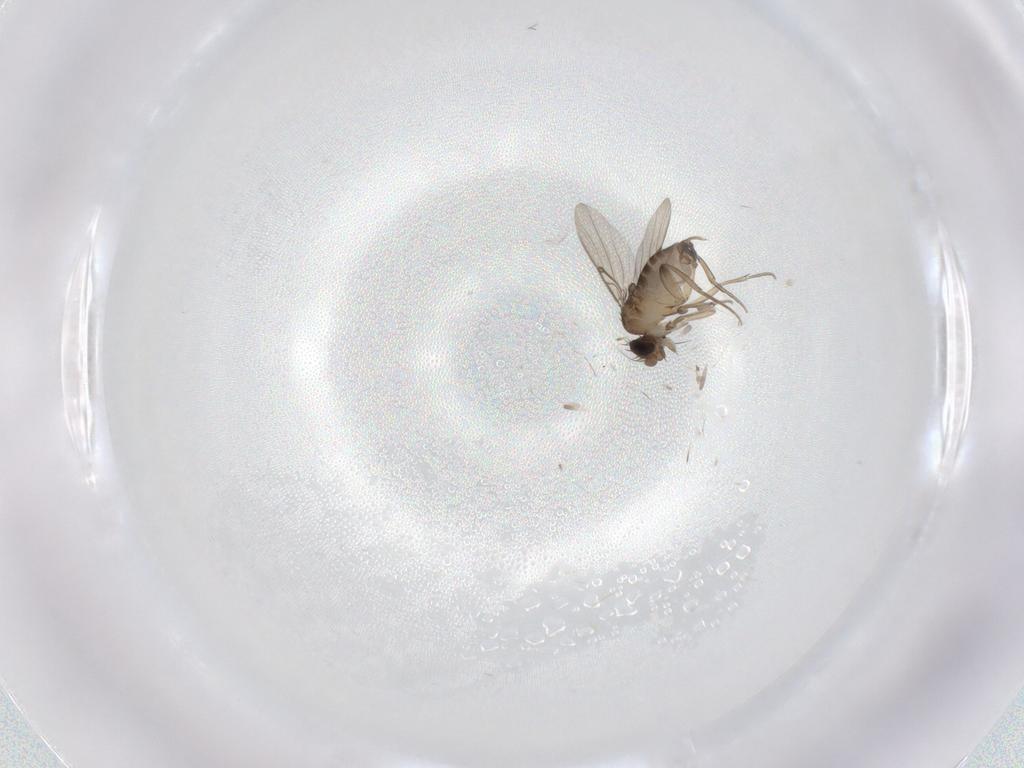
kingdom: Animalia
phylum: Arthropoda
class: Insecta
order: Diptera
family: Phoridae
